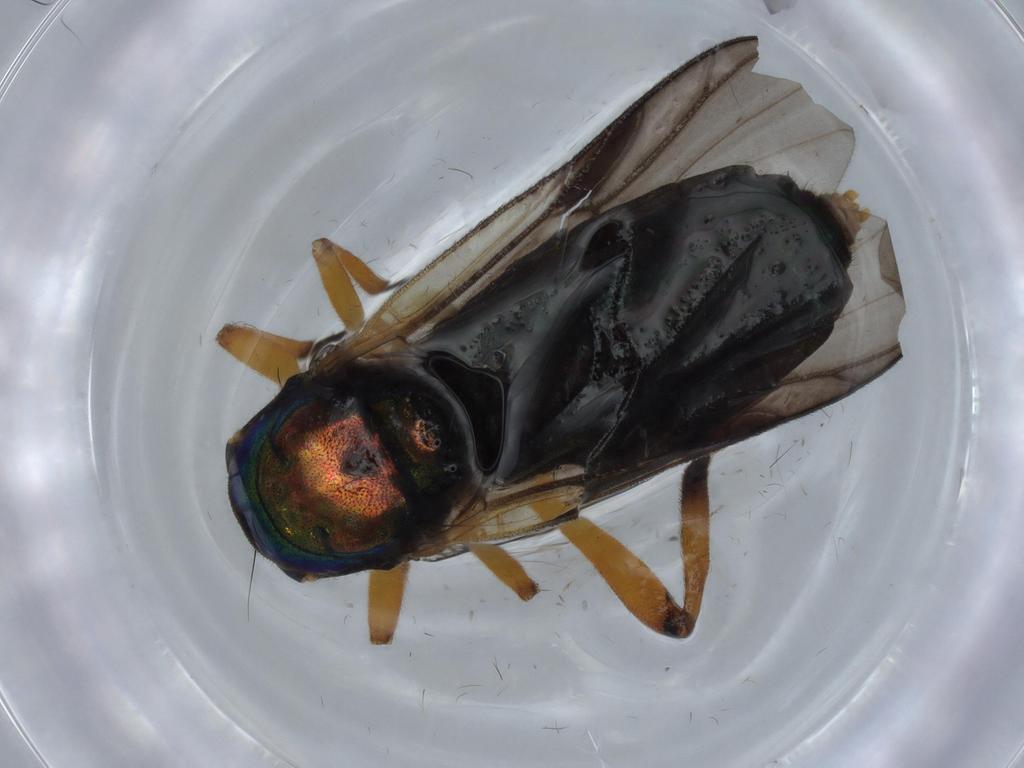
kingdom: Animalia
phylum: Arthropoda
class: Insecta
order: Diptera
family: Stratiomyidae
